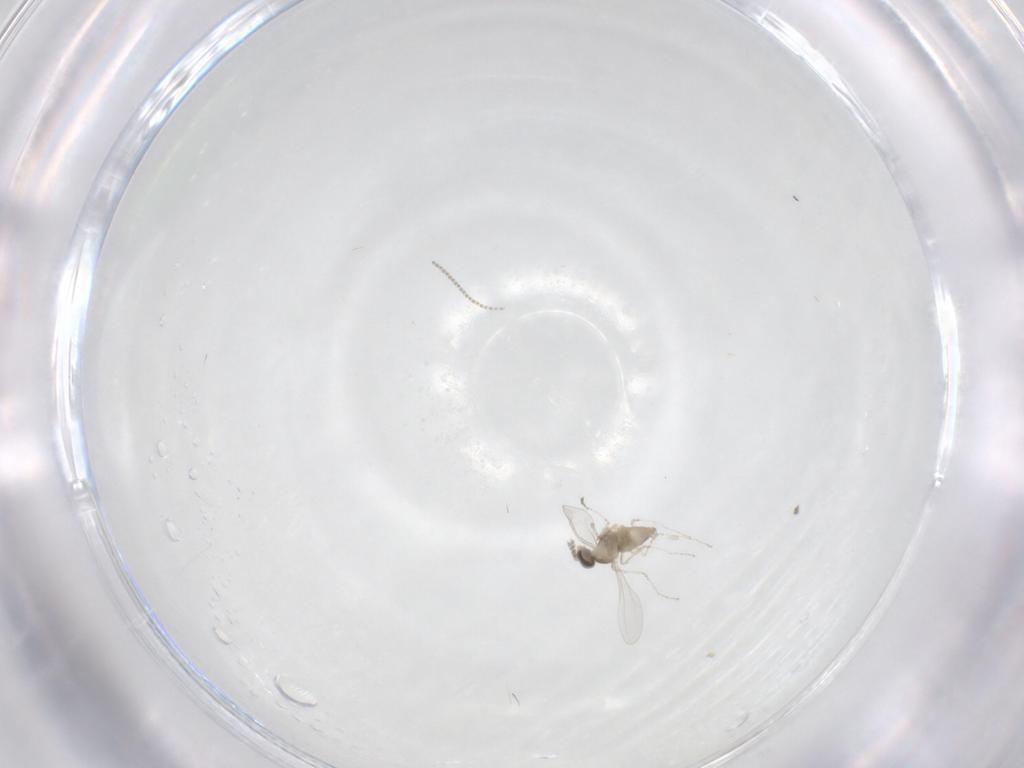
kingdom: Animalia
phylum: Arthropoda
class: Insecta
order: Diptera
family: Cecidomyiidae
